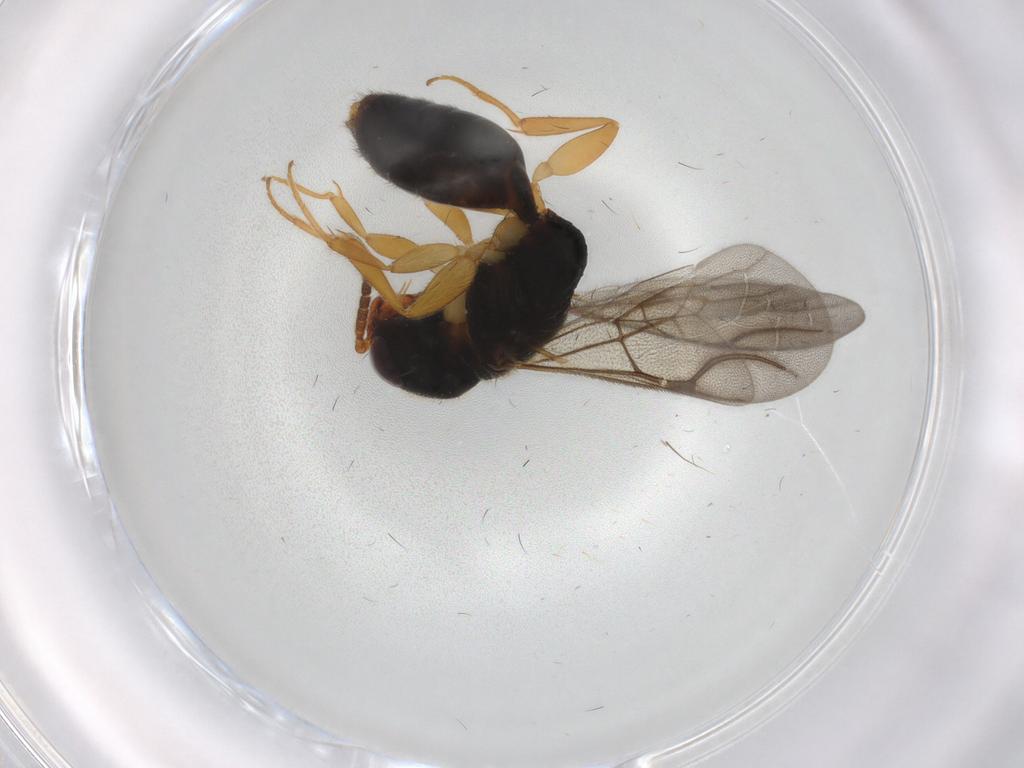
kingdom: Animalia
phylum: Arthropoda
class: Insecta
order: Hymenoptera
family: Bethylidae
